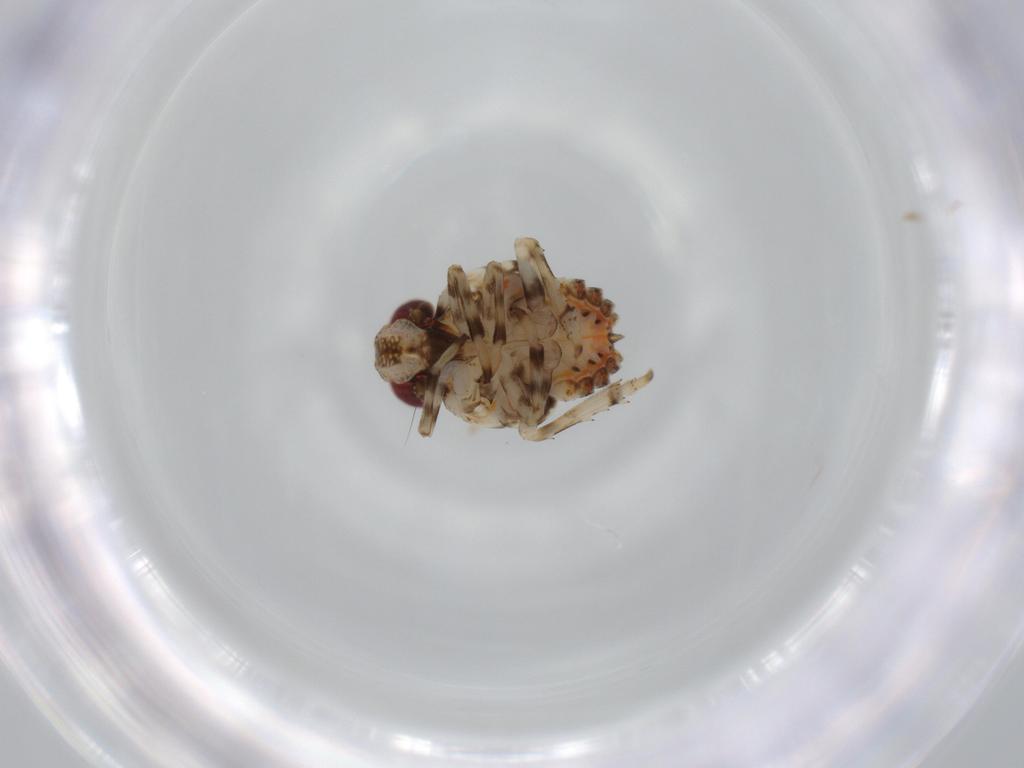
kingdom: Animalia
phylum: Arthropoda
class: Insecta
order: Hemiptera
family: Issidae
